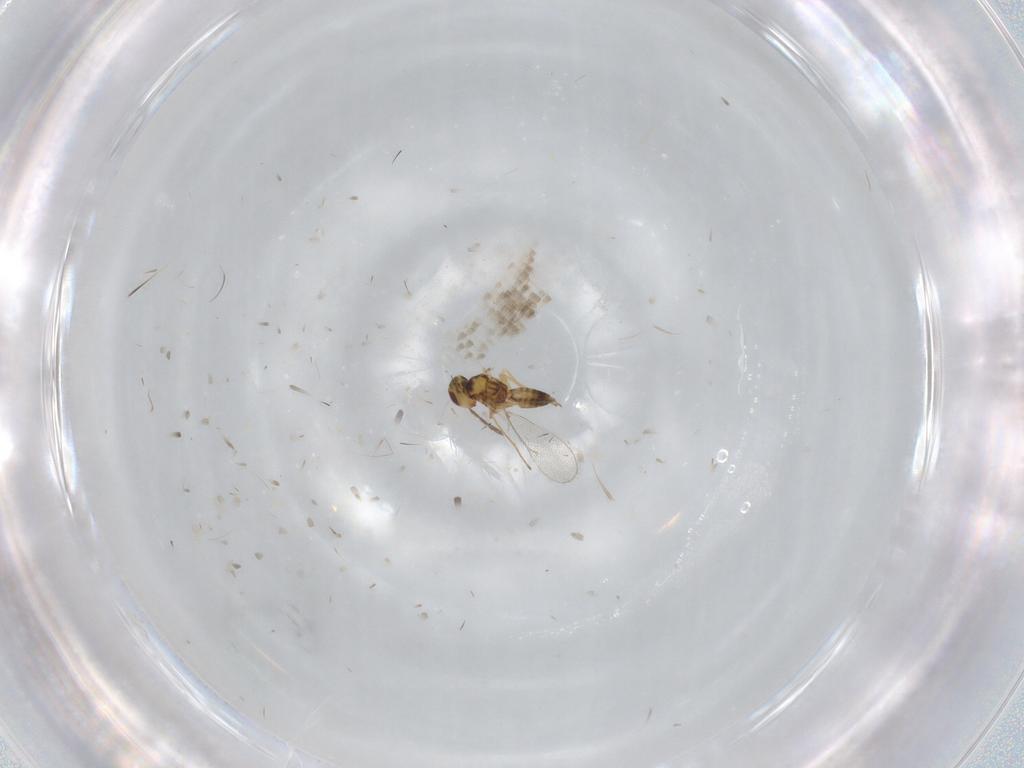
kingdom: Animalia
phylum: Arthropoda
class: Insecta
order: Hymenoptera
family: Eulophidae
